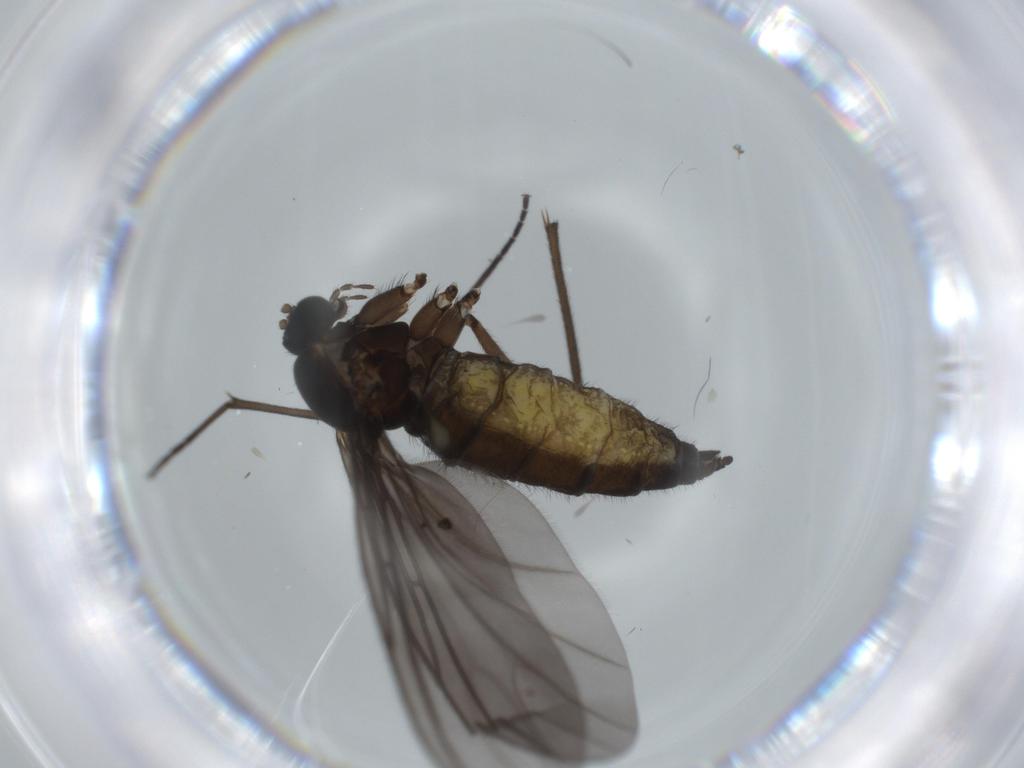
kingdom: Animalia
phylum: Arthropoda
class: Insecta
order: Diptera
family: Sciaridae
